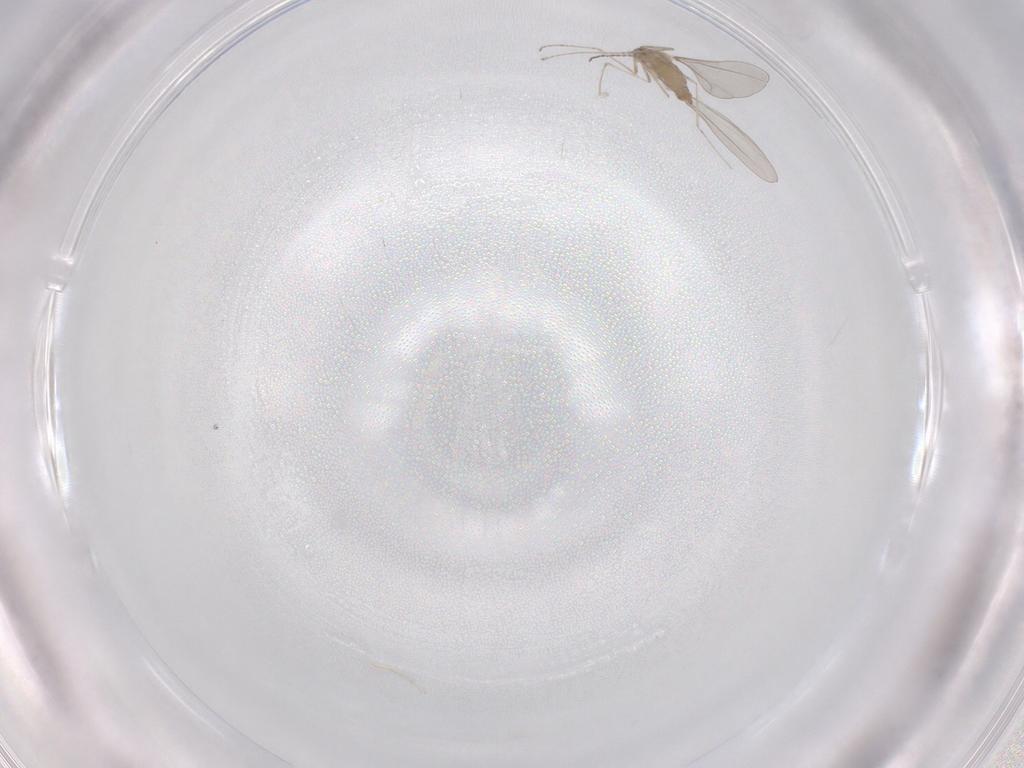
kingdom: Animalia
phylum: Arthropoda
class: Insecta
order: Diptera
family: Cecidomyiidae
